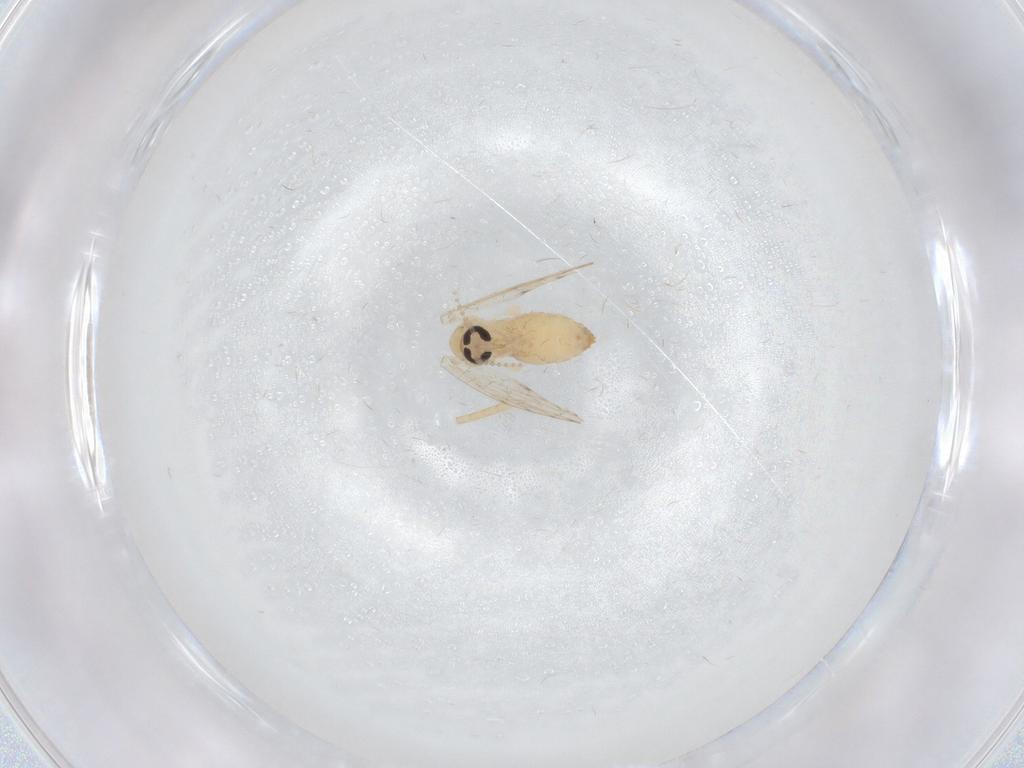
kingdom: Animalia
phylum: Arthropoda
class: Insecta
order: Diptera
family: Psychodidae
